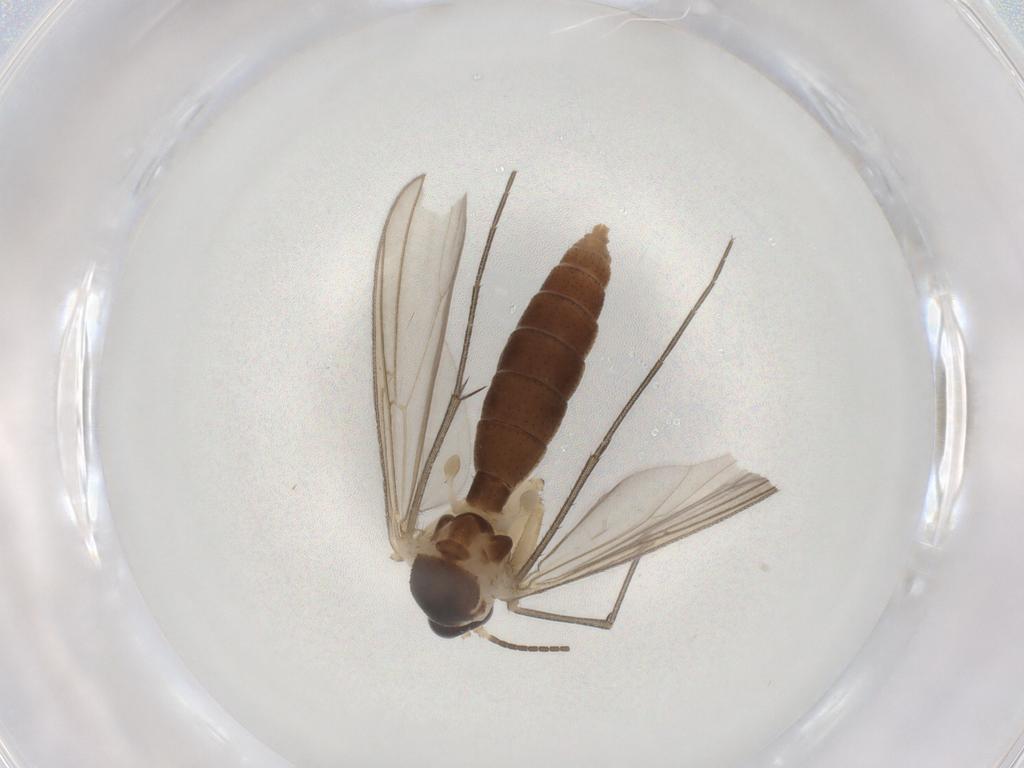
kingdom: Animalia
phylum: Arthropoda
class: Insecta
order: Diptera
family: Mycetophilidae
